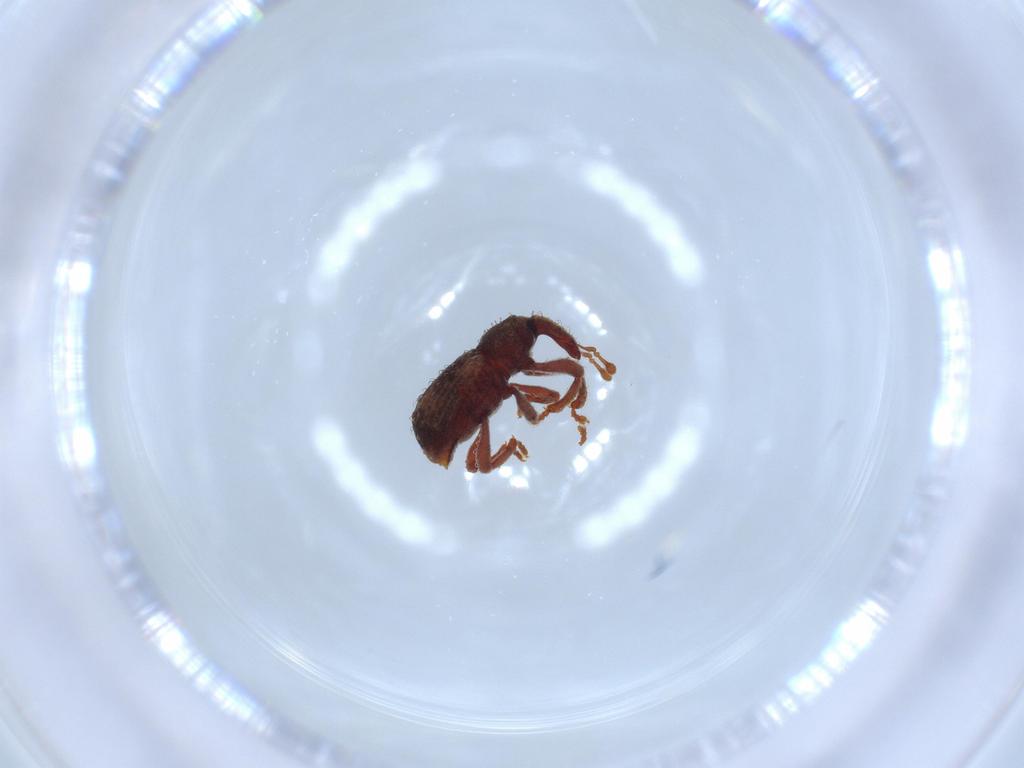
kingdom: Animalia
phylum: Arthropoda
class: Insecta
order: Coleoptera
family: Curculionidae
